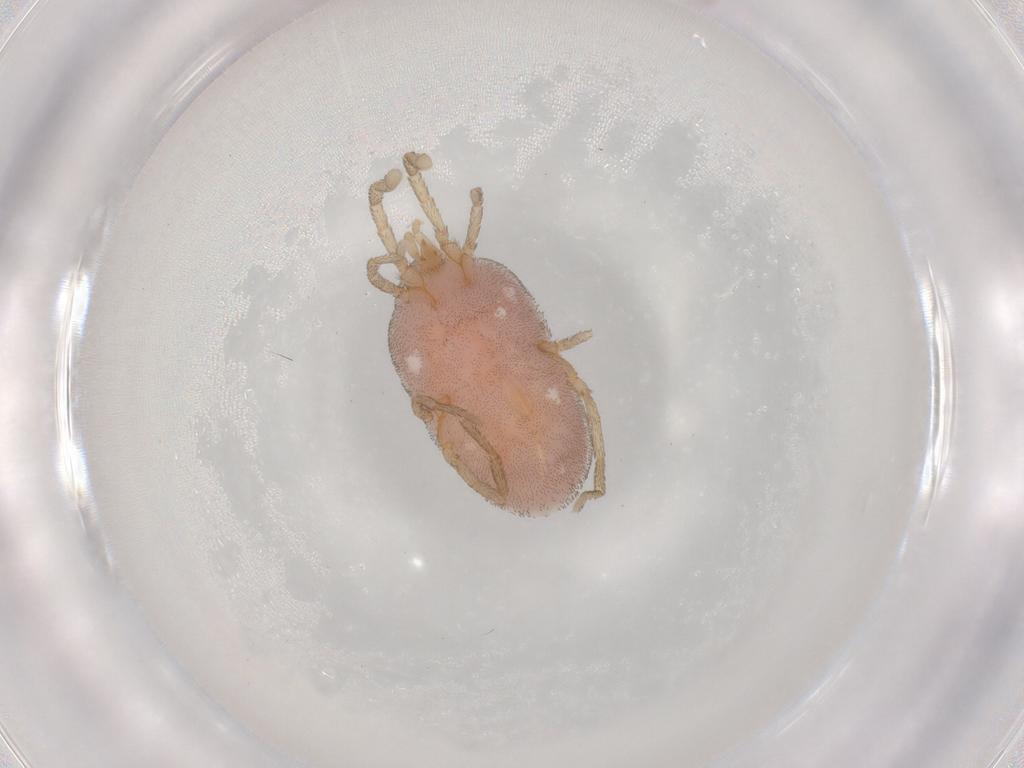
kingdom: Animalia
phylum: Arthropoda
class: Arachnida
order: Trombidiformes
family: Erythraeidae
